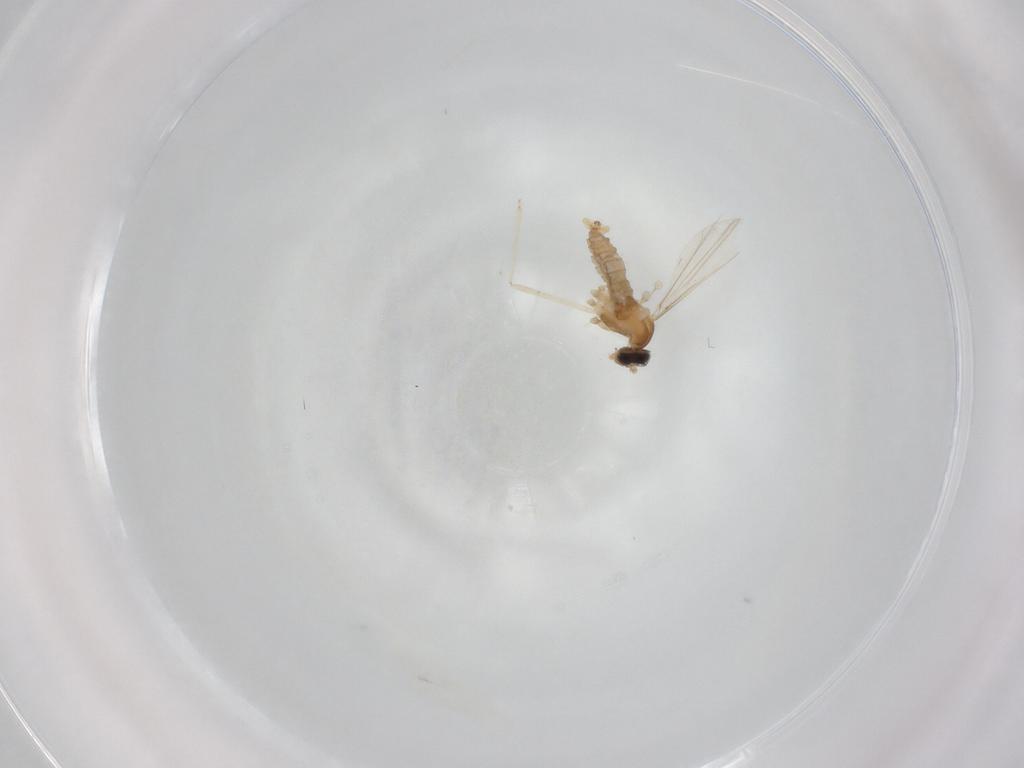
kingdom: Animalia
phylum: Arthropoda
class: Insecta
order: Diptera
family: Cecidomyiidae
